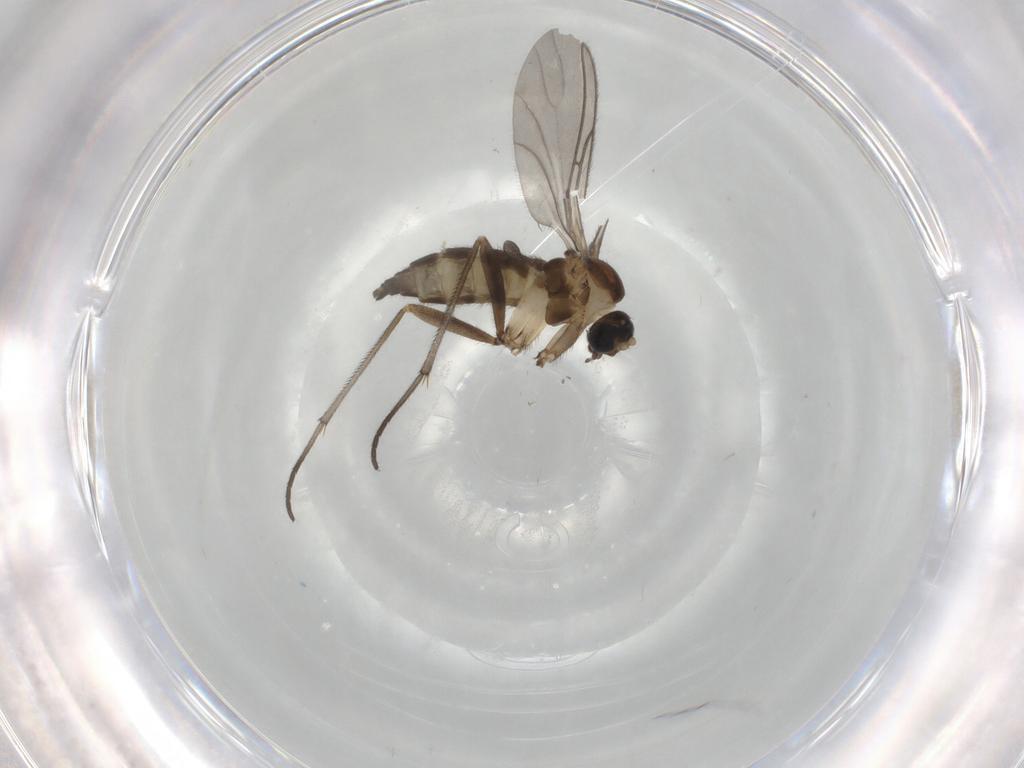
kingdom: Animalia
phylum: Arthropoda
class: Insecta
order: Diptera
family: Sciaridae
